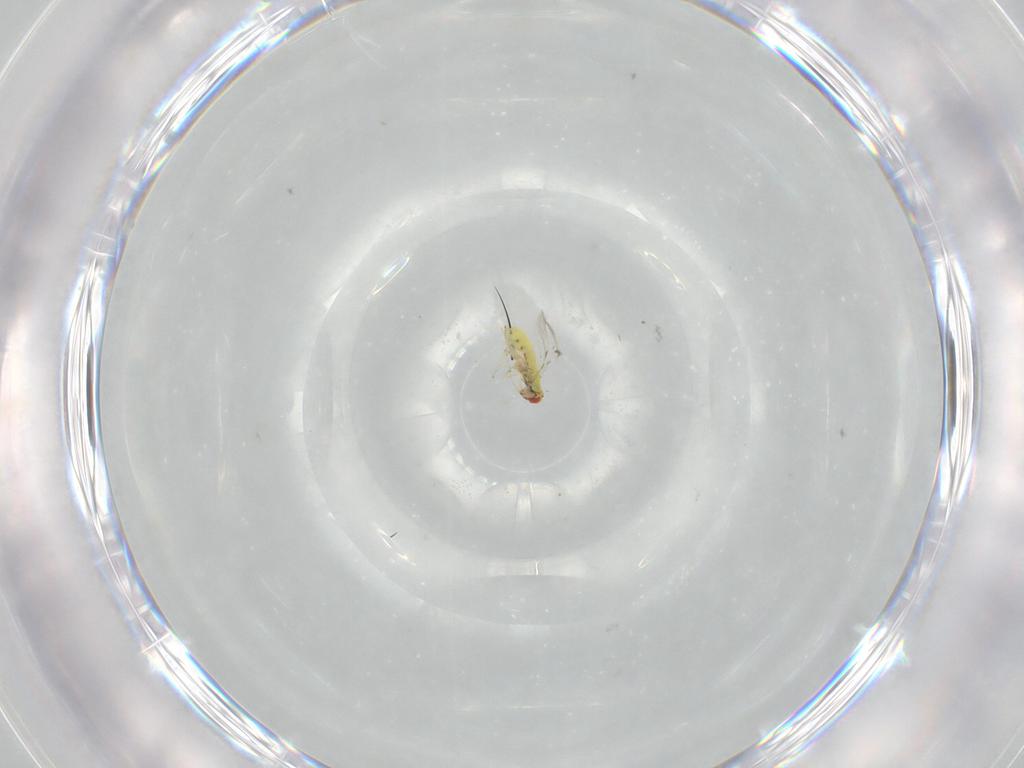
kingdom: Animalia
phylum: Arthropoda
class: Insecta
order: Hymenoptera
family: Trichogrammatidae
